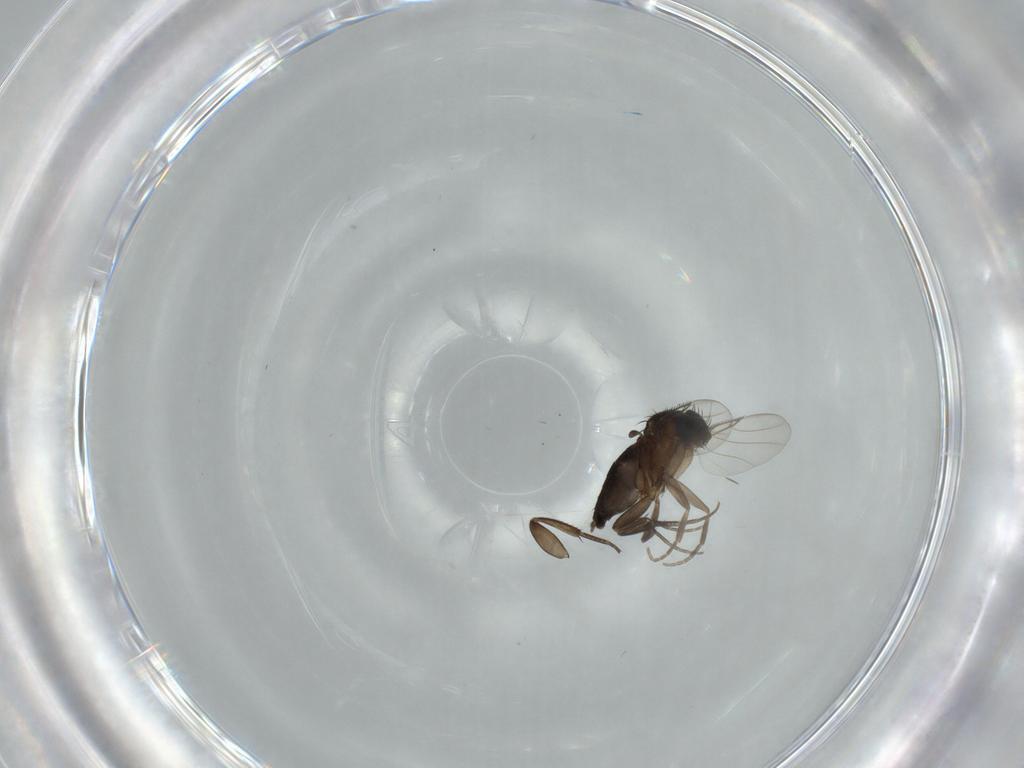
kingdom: Animalia
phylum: Arthropoda
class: Insecta
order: Diptera
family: Phoridae
